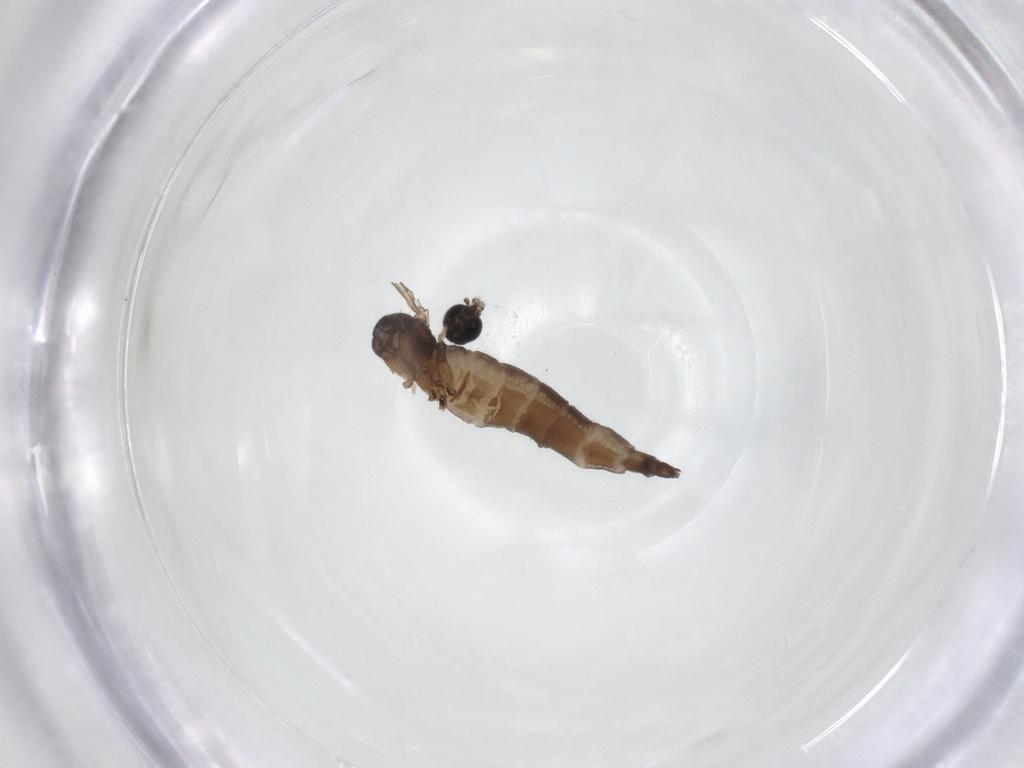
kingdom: Animalia
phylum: Arthropoda
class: Insecta
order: Diptera
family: Sciaridae
